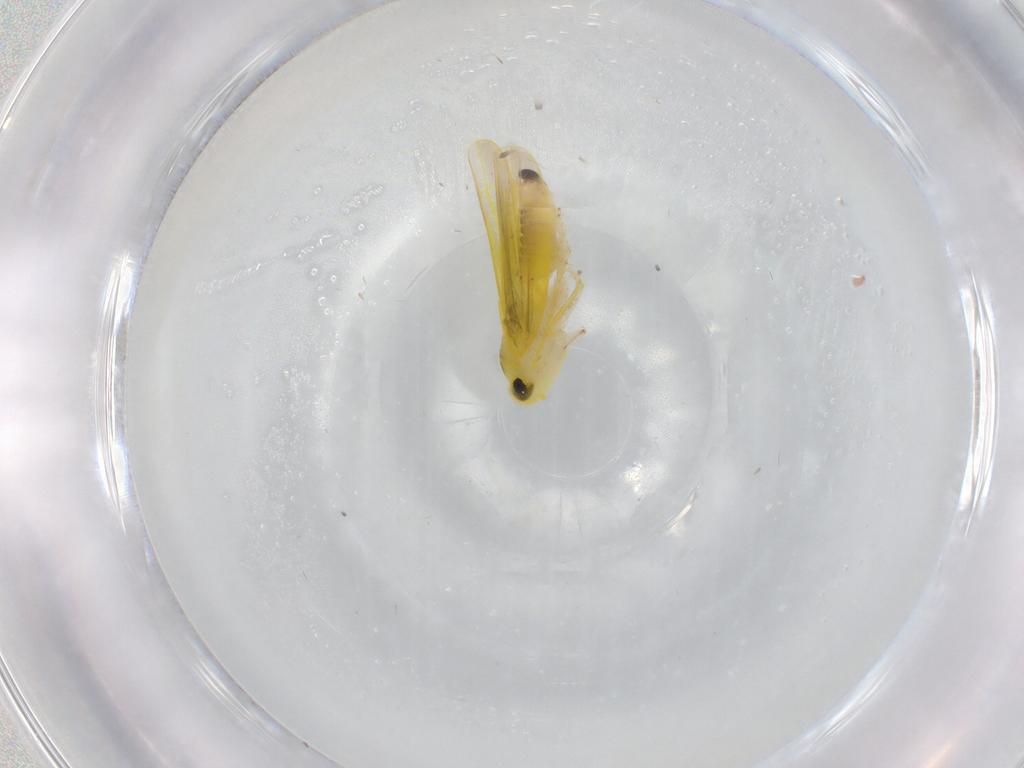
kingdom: Animalia
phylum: Arthropoda
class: Insecta
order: Hemiptera
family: Cicadellidae
